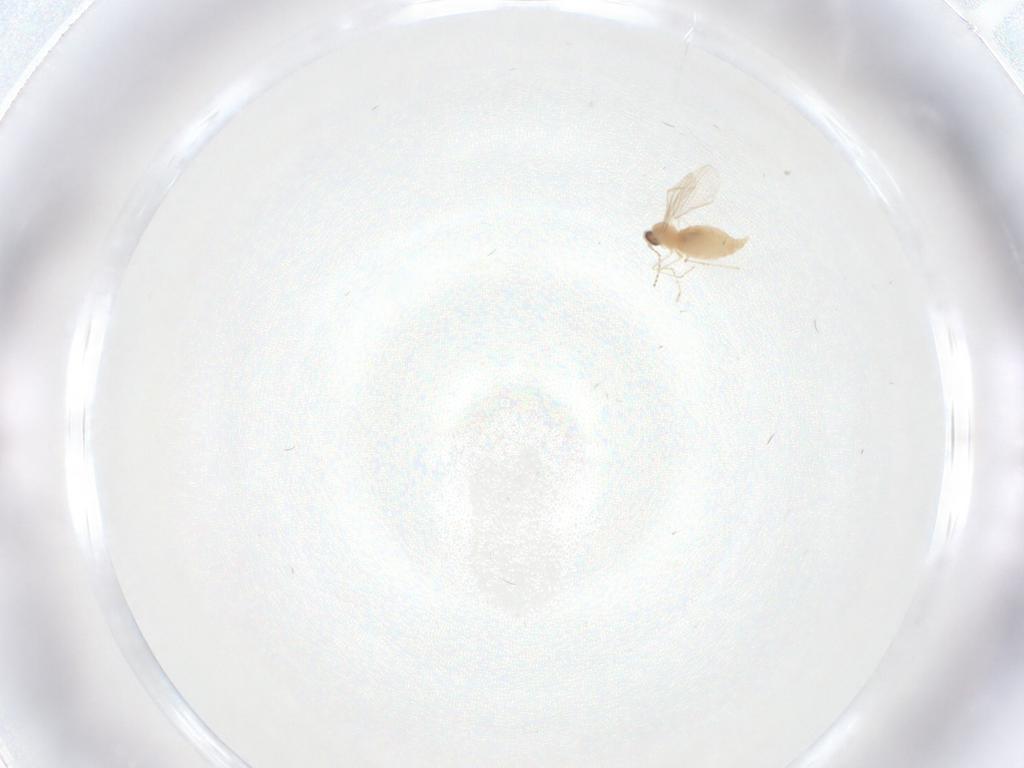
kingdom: Animalia
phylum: Arthropoda
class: Insecta
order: Diptera
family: Cecidomyiidae
